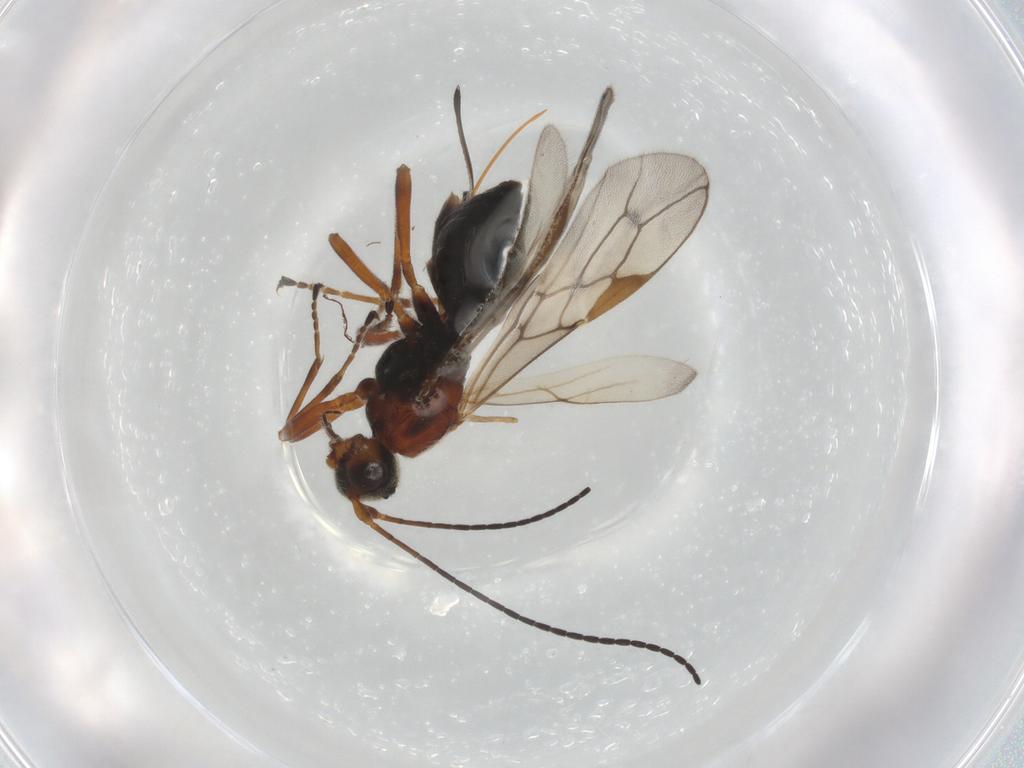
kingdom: Animalia
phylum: Arthropoda
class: Insecta
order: Hymenoptera
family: Braconidae
